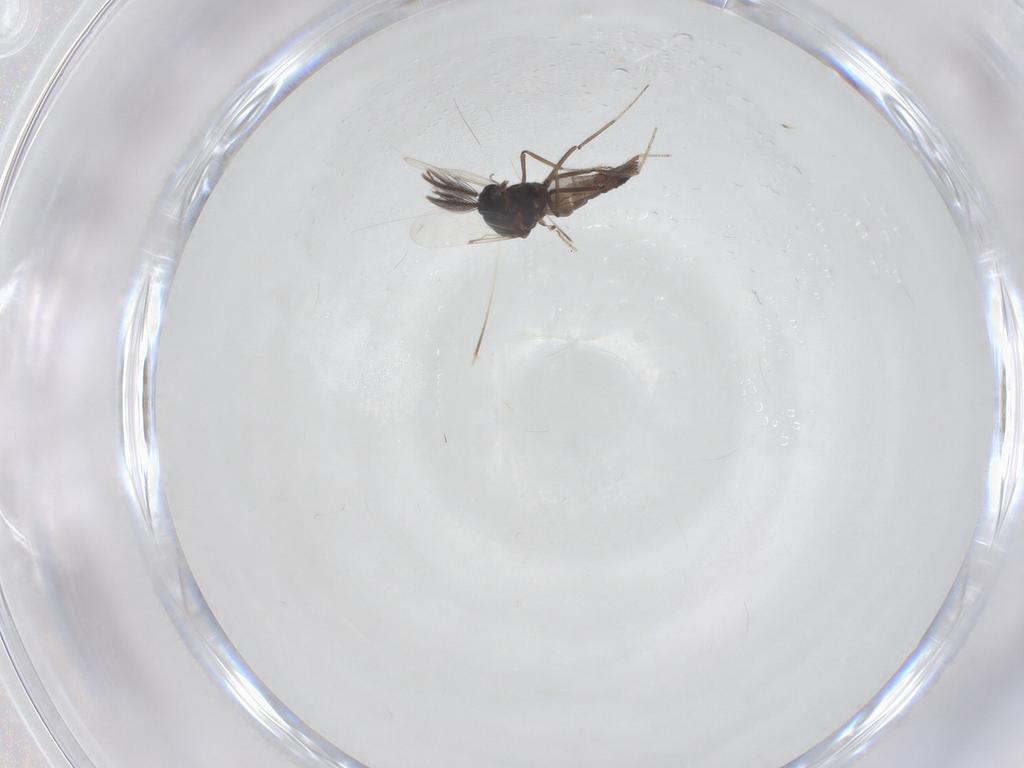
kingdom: Animalia
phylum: Arthropoda
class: Insecta
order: Diptera
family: Ceratopogonidae
